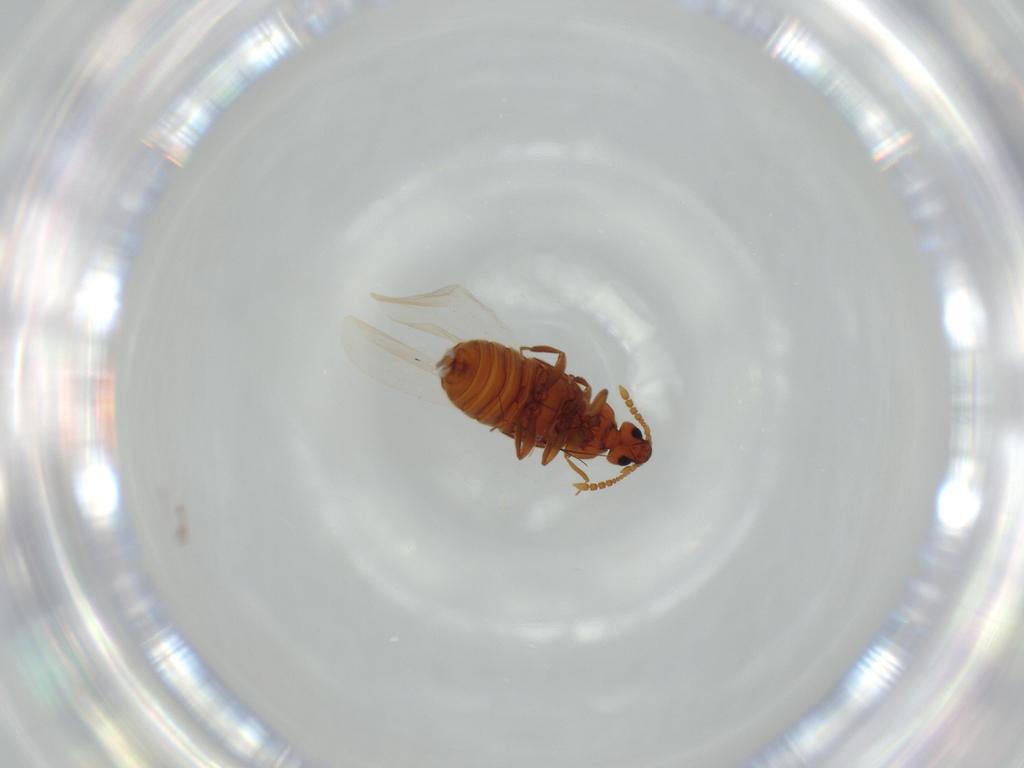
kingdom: Animalia
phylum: Arthropoda
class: Insecta
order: Coleoptera
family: Staphylinidae
